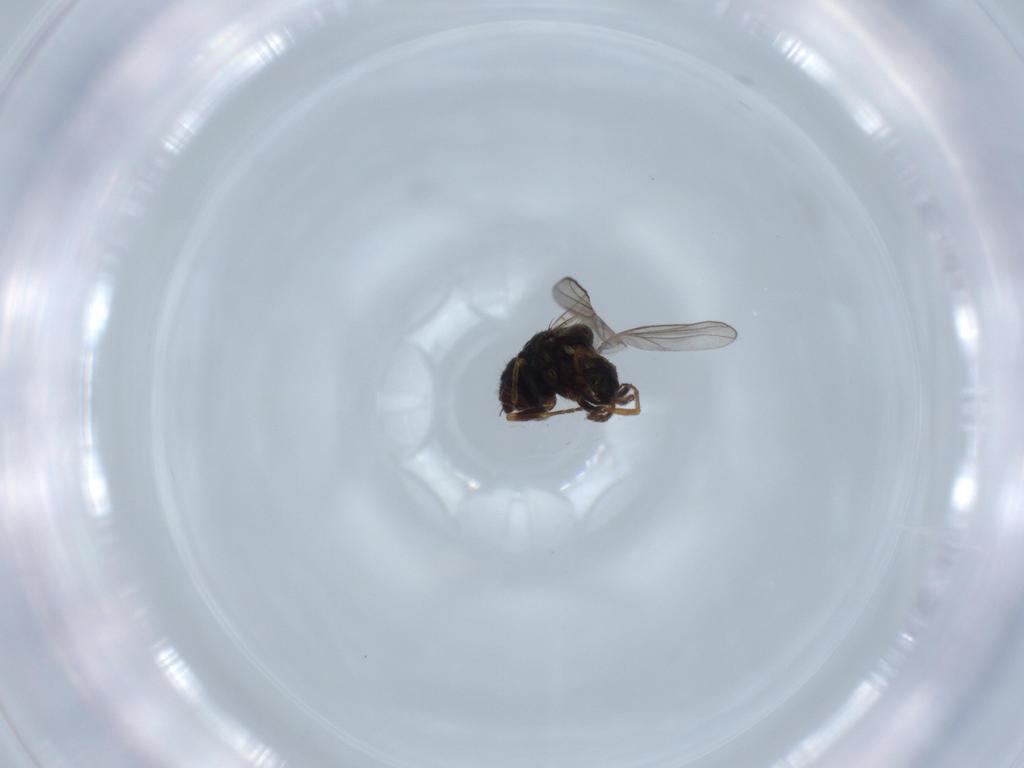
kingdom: Animalia
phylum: Arthropoda
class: Insecta
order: Diptera
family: Chloropidae
